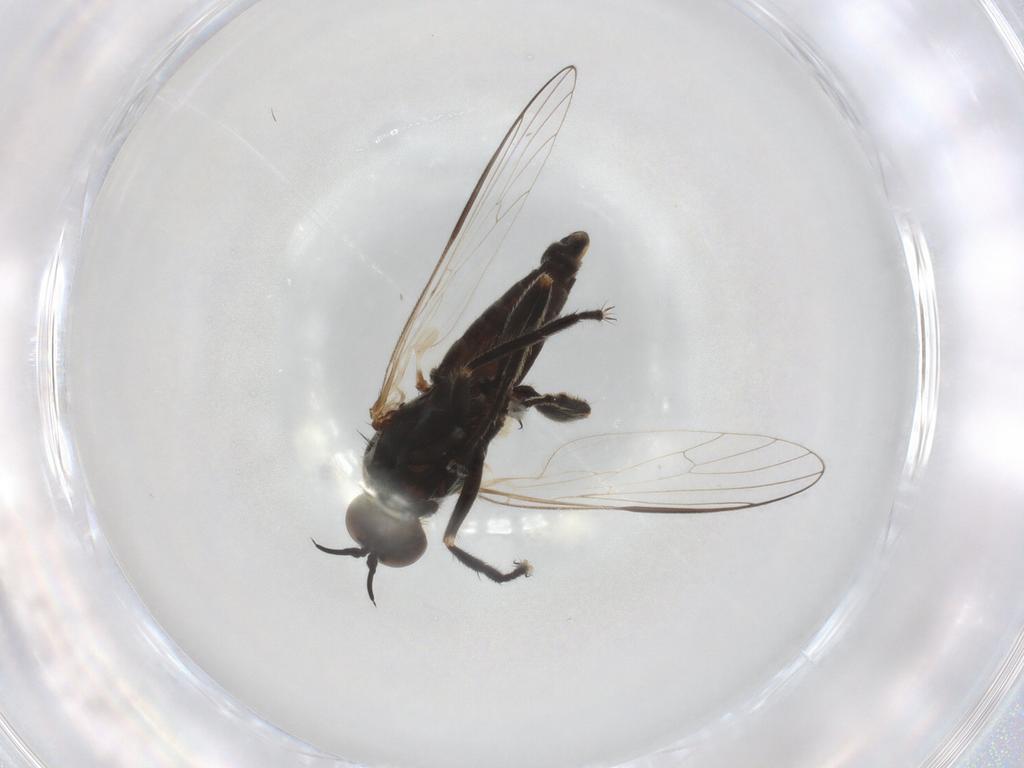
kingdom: Animalia
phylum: Arthropoda
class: Insecta
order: Diptera
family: Empididae
